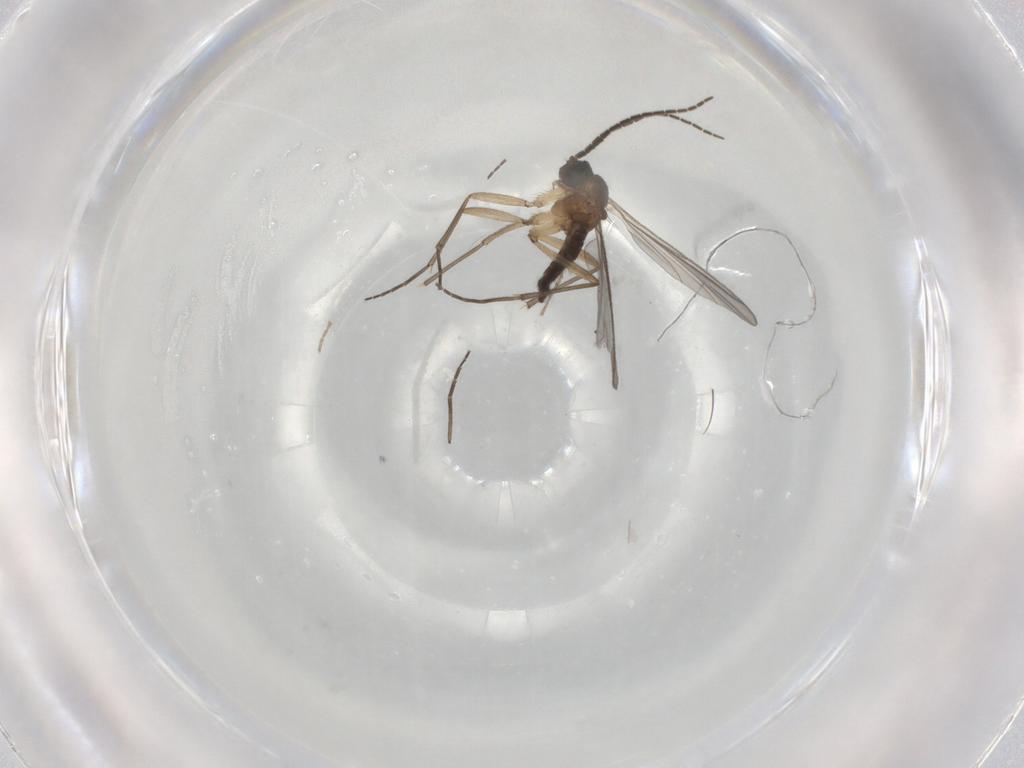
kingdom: Animalia
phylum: Arthropoda
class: Insecta
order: Diptera
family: Sciaridae
